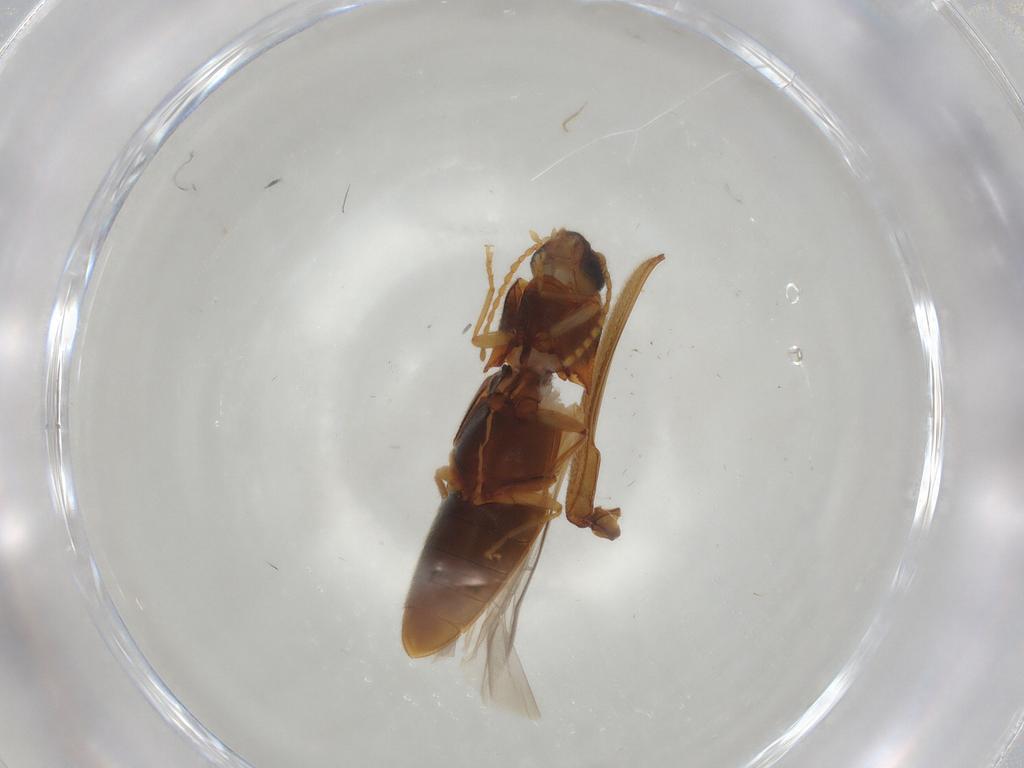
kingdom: Animalia
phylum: Arthropoda
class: Insecta
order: Coleoptera
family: Elateridae
